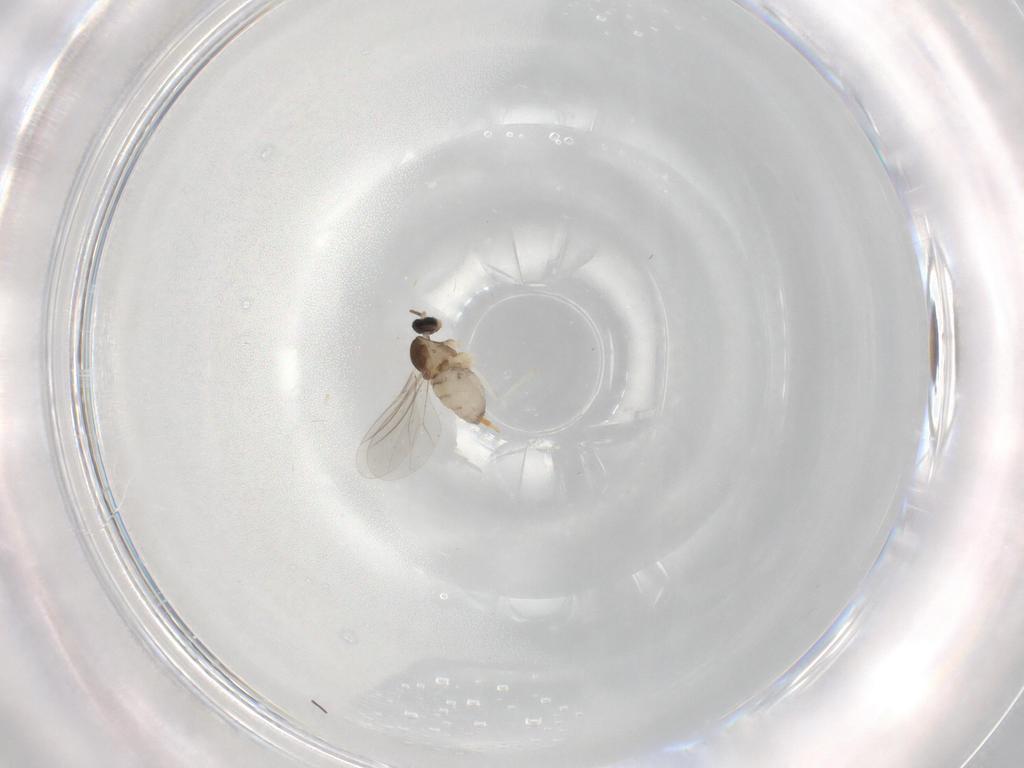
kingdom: Animalia
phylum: Arthropoda
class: Insecta
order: Diptera
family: Cecidomyiidae
